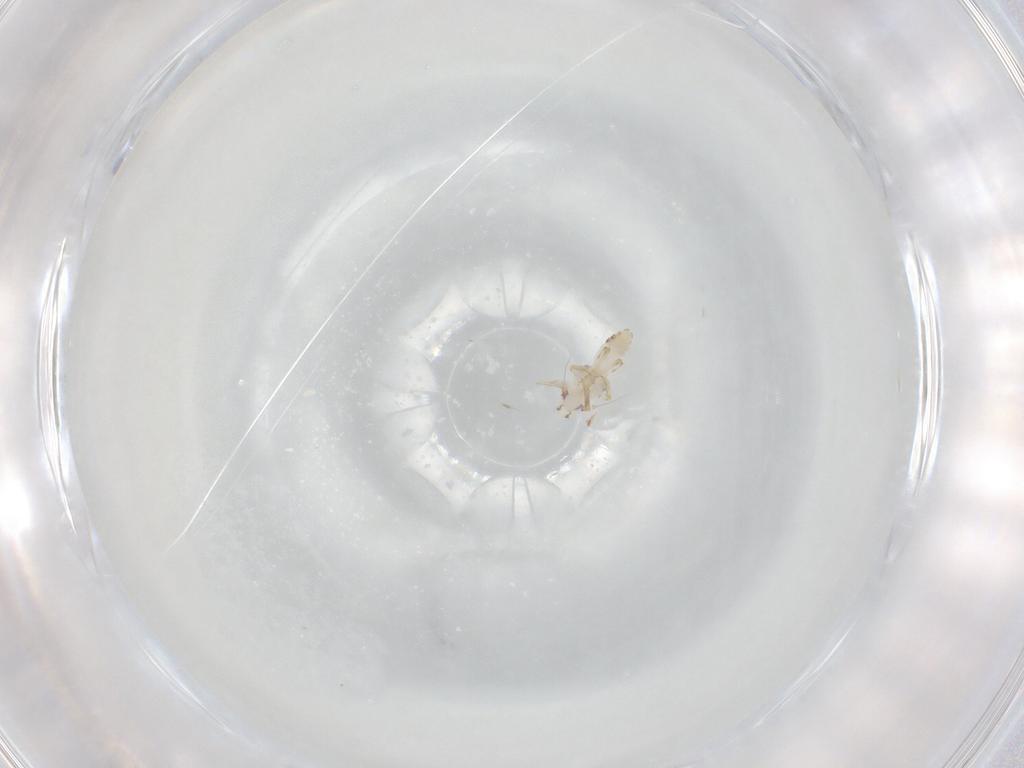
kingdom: Animalia
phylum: Arthropoda
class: Insecta
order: Hemiptera
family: Delphacidae
